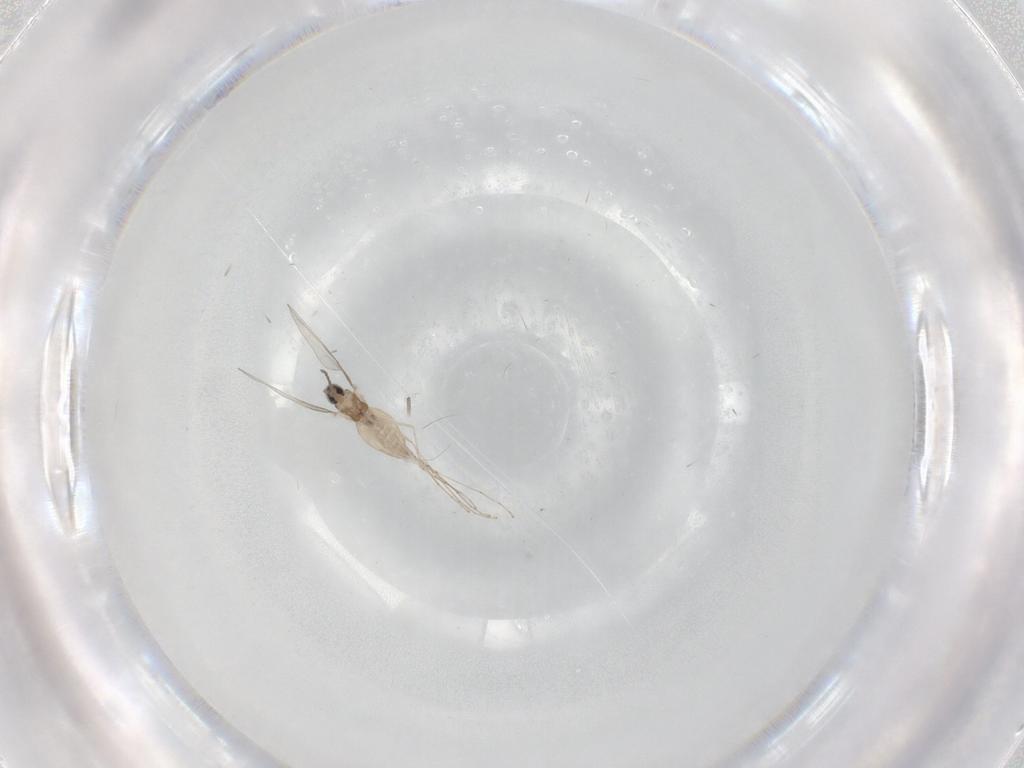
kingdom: Animalia
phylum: Arthropoda
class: Insecta
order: Diptera
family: Cecidomyiidae
